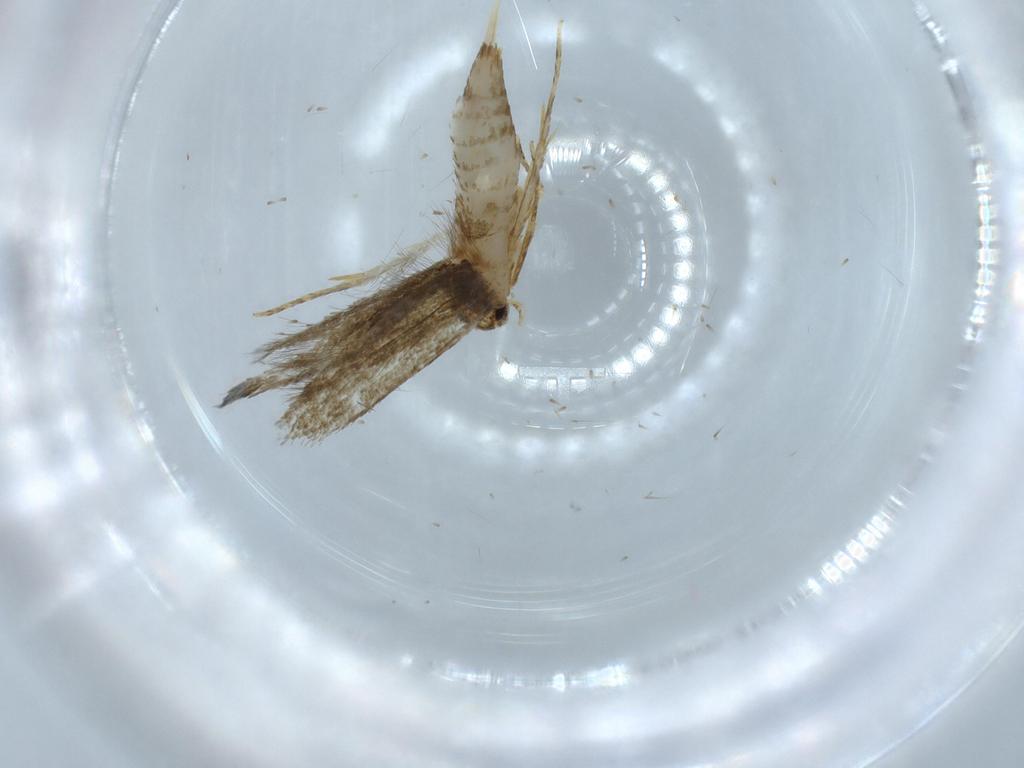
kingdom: Animalia
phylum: Arthropoda
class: Insecta
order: Lepidoptera
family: Tineidae
